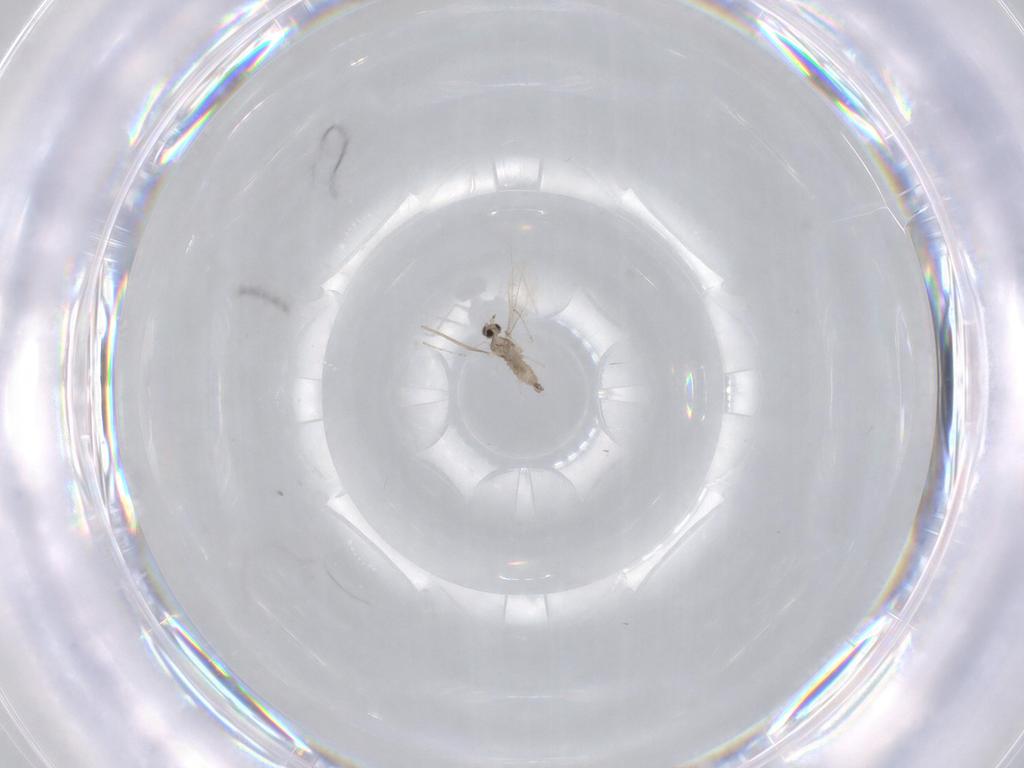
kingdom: Animalia
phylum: Arthropoda
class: Insecta
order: Diptera
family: Cecidomyiidae
